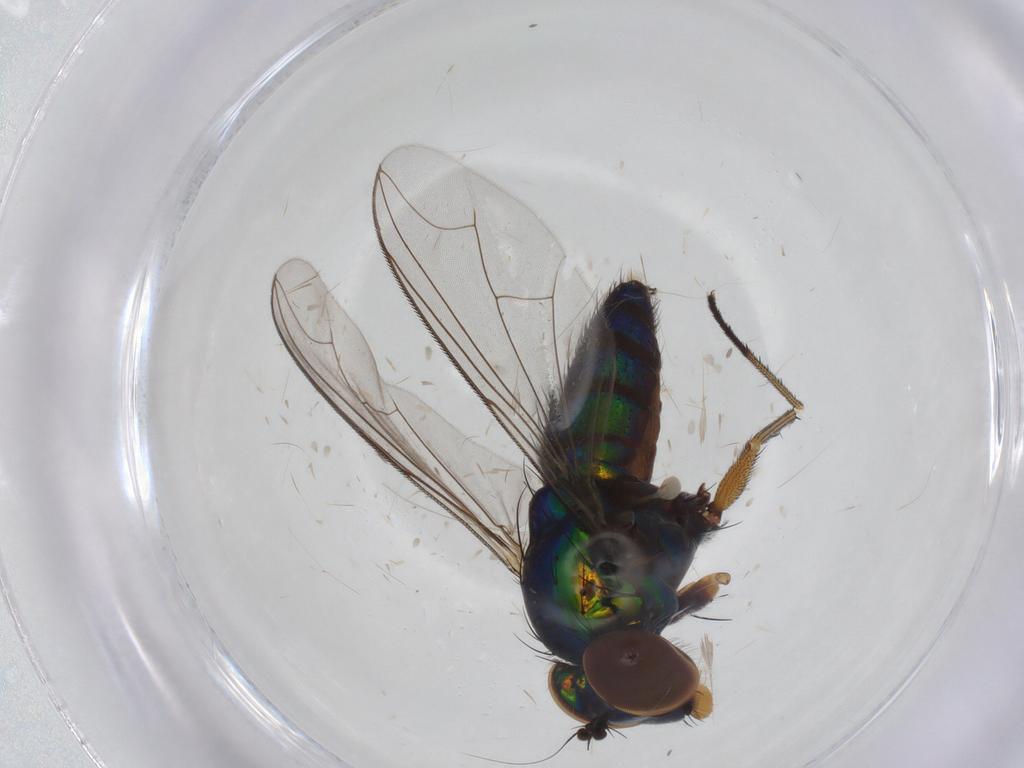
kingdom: Animalia
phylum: Arthropoda
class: Insecta
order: Diptera
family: Dolichopodidae
